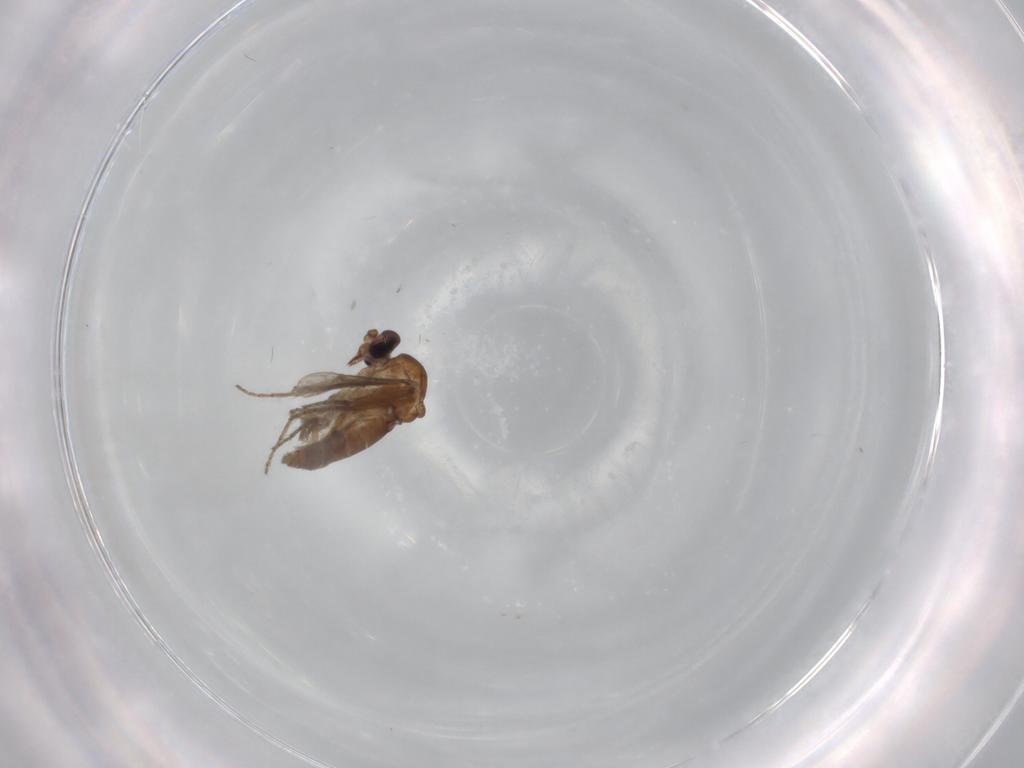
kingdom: Animalia
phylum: Arthropoda
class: Insecta
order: Diptera
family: Phoridae
